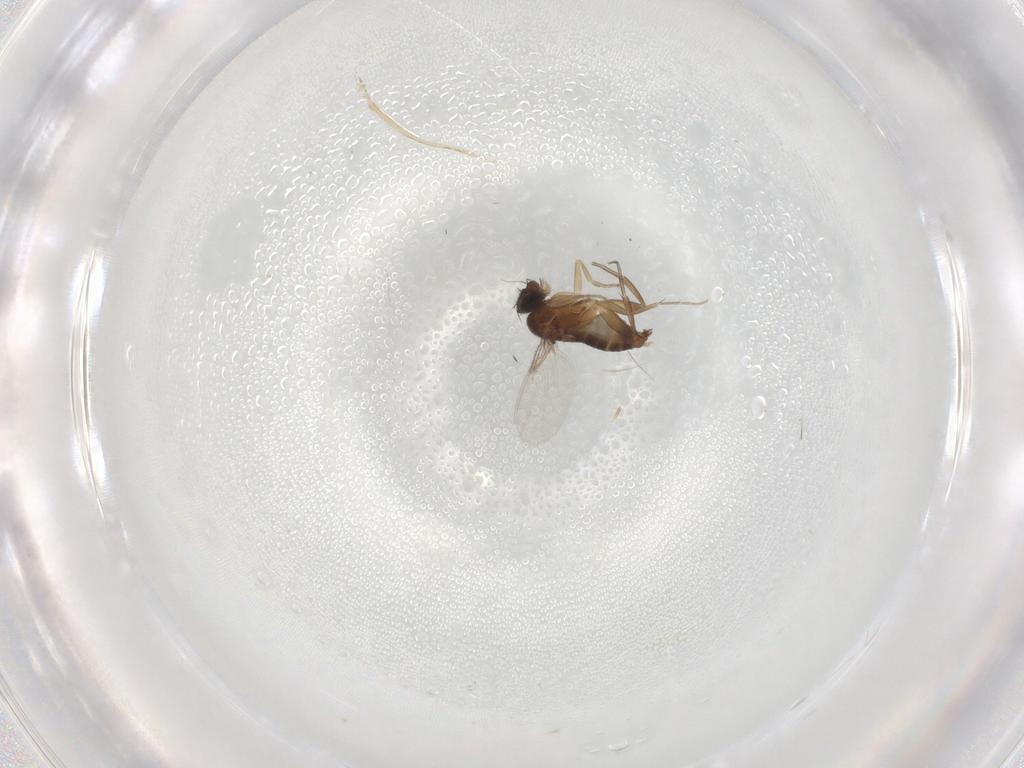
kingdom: Animalia
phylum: Arthropoda
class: Insecta
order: Diptera
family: Phoridae
